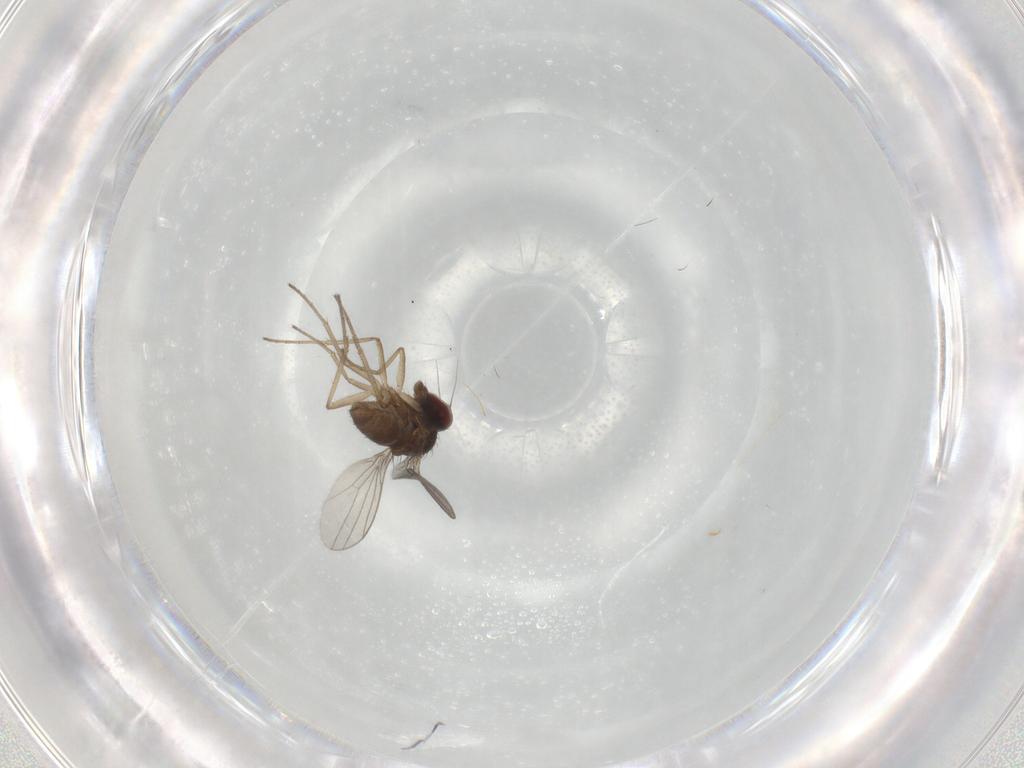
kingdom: Animalia
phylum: Arthropoda
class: Insecta
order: Diptera
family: Dolichopodidae
